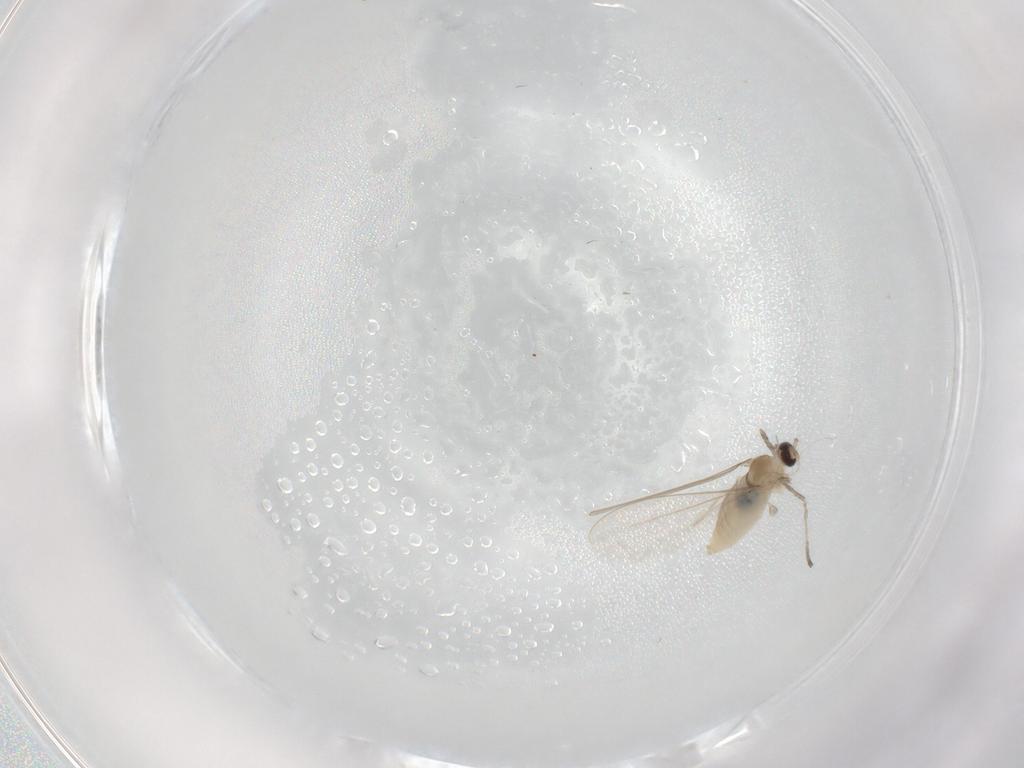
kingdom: Animalia
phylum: Arthropoda
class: Insecta
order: Diptera
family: Cecidomyiidae
